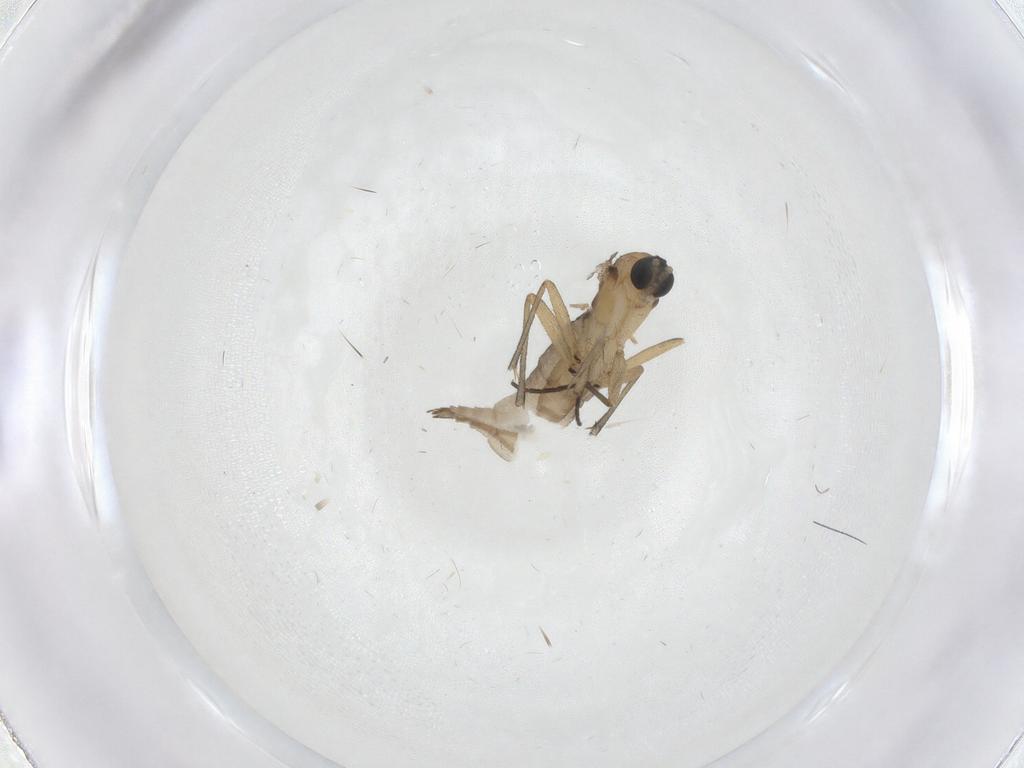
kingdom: Animalia
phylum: Arthropoda
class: Insecta
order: Diptera
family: Sciaridae
